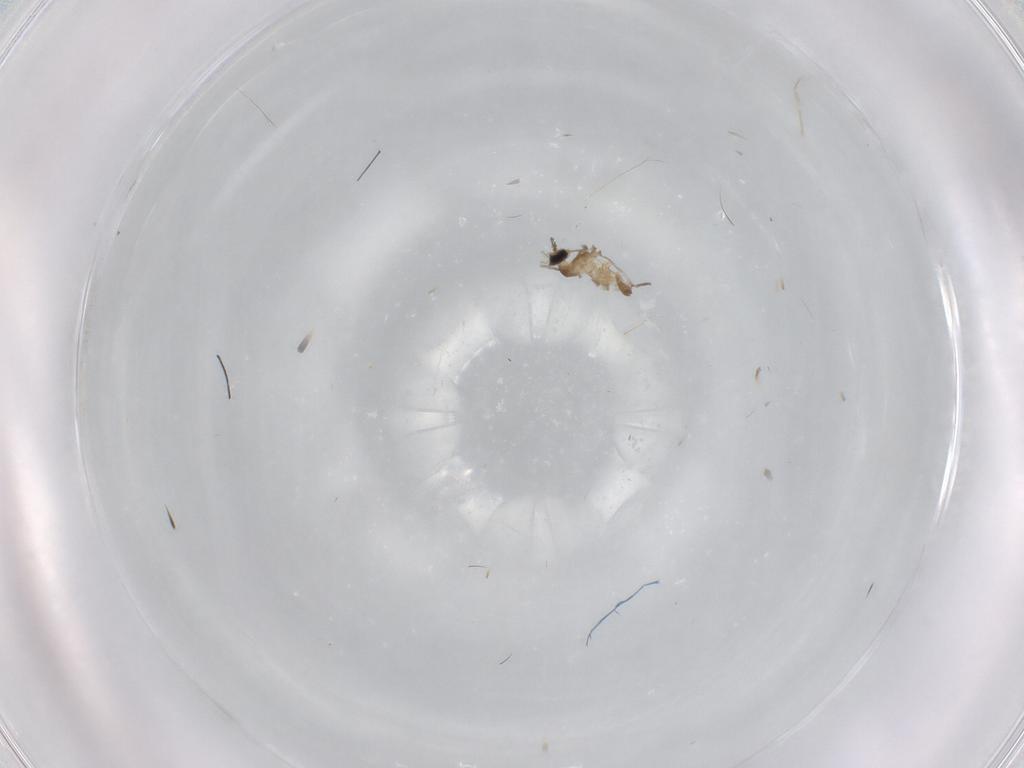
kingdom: Animalia
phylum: Arthropoda
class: Insecta
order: Diptera
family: Cecidomyiidae
